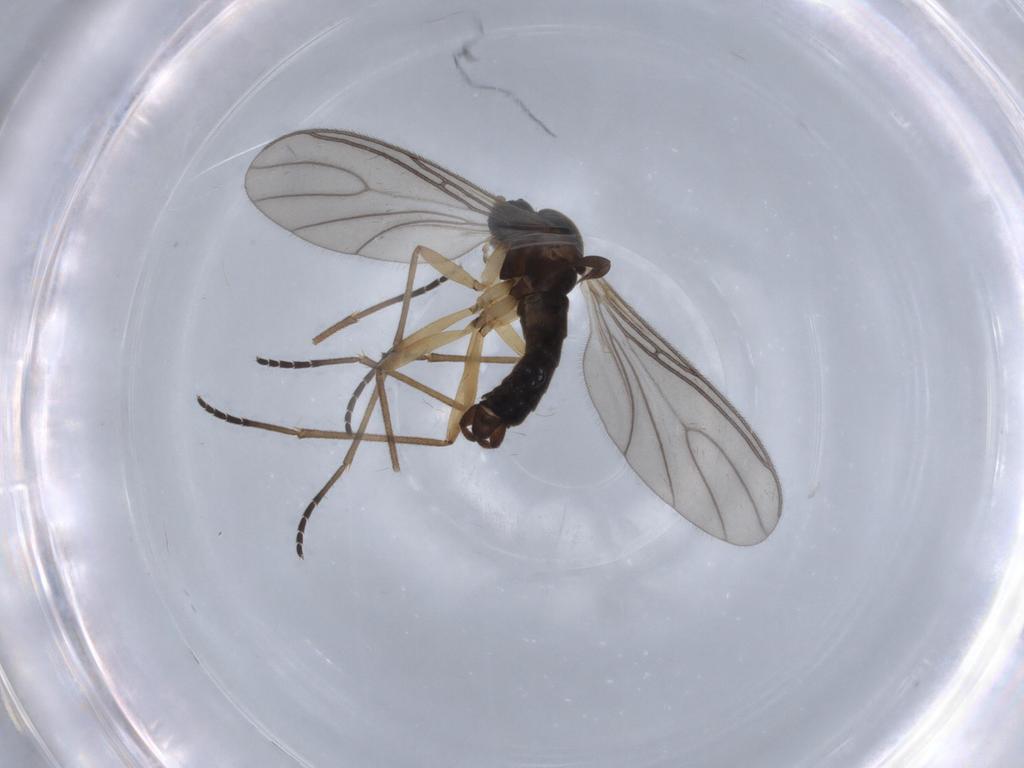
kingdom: Animalia
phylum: Arthropoda
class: Insecta
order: Diptera
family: Sciaridae
